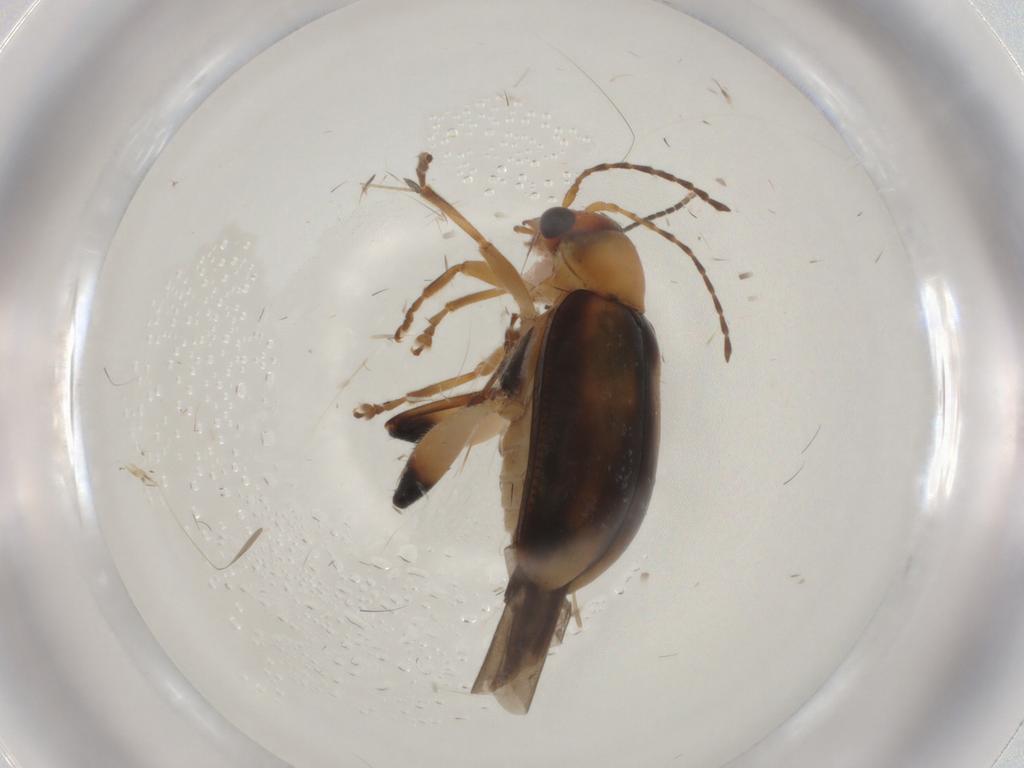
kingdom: Animalia
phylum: Arthropoda
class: Insecta
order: Coleoptera
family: Chrysomelidae
